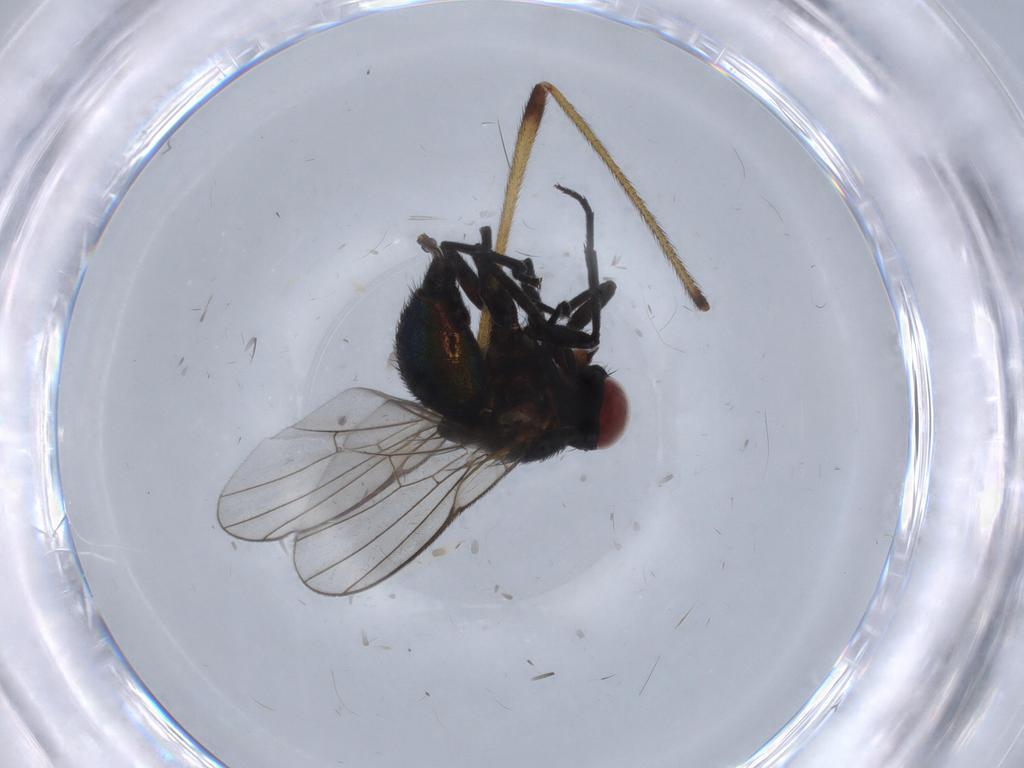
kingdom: Animalia
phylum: Arthropoda
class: Insecta
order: Diptera
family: Agromyzidae
